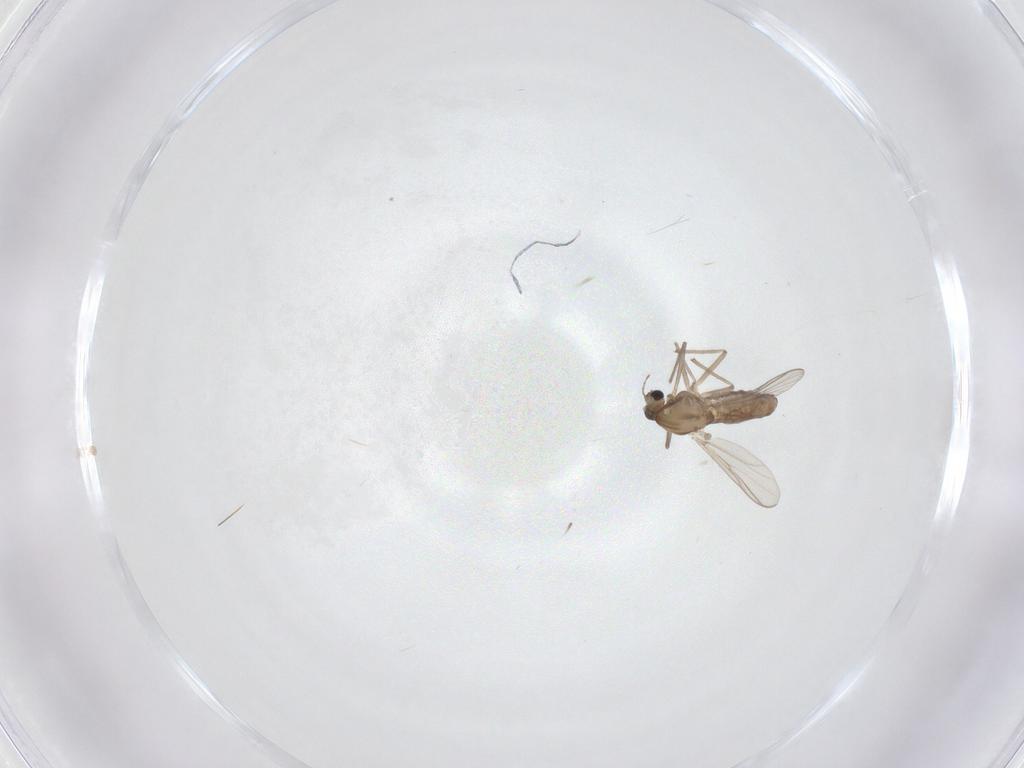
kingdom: Animalia
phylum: Arthropoda
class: Insecta
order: Diptera
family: Chironomidae
